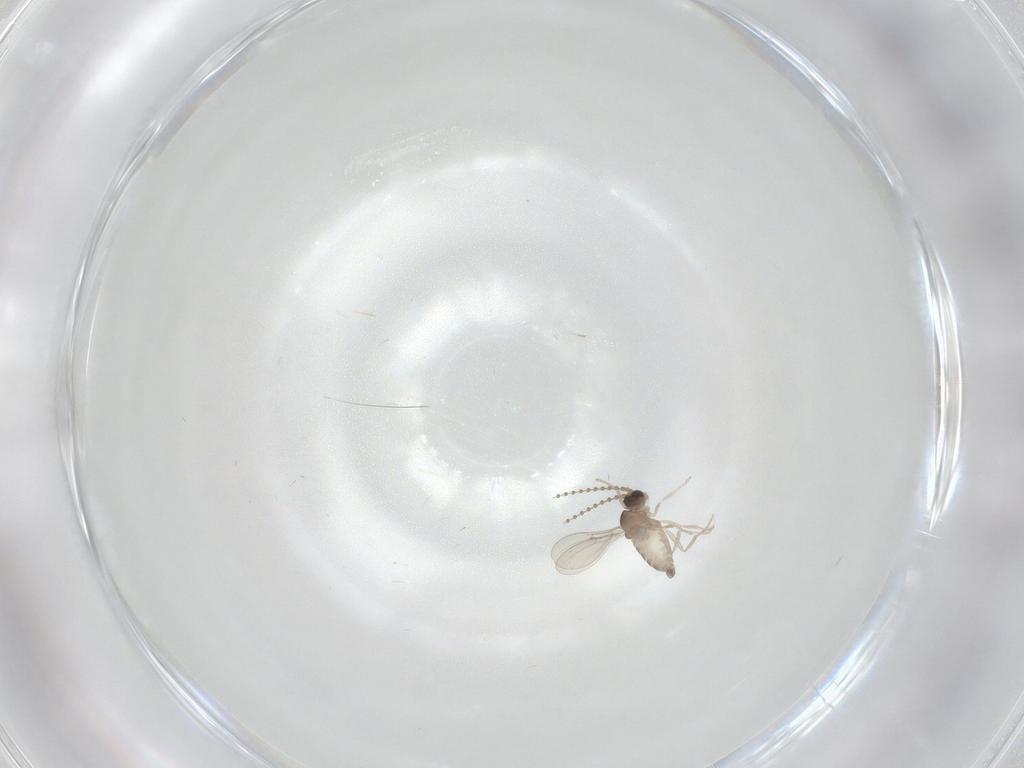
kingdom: Animalia
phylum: Arthropoda
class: Insecta
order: Diptera
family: Cecidomyiidae
